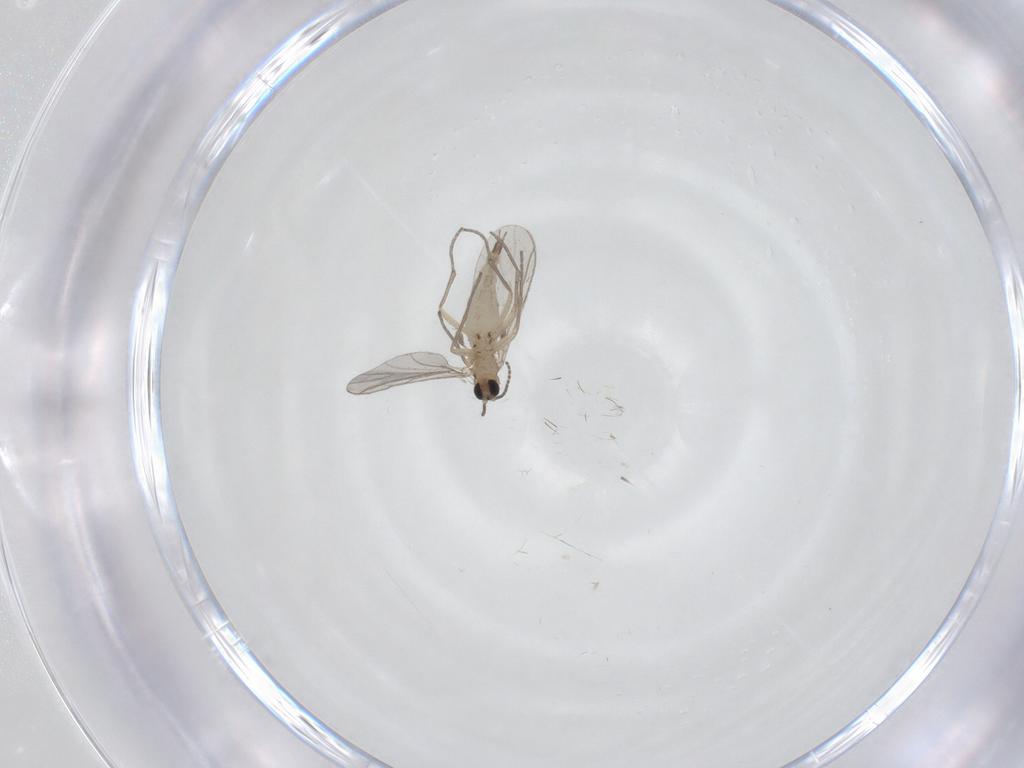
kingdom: Animalia
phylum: Arthropoda
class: Insecta
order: Diptera
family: Sciaridae
